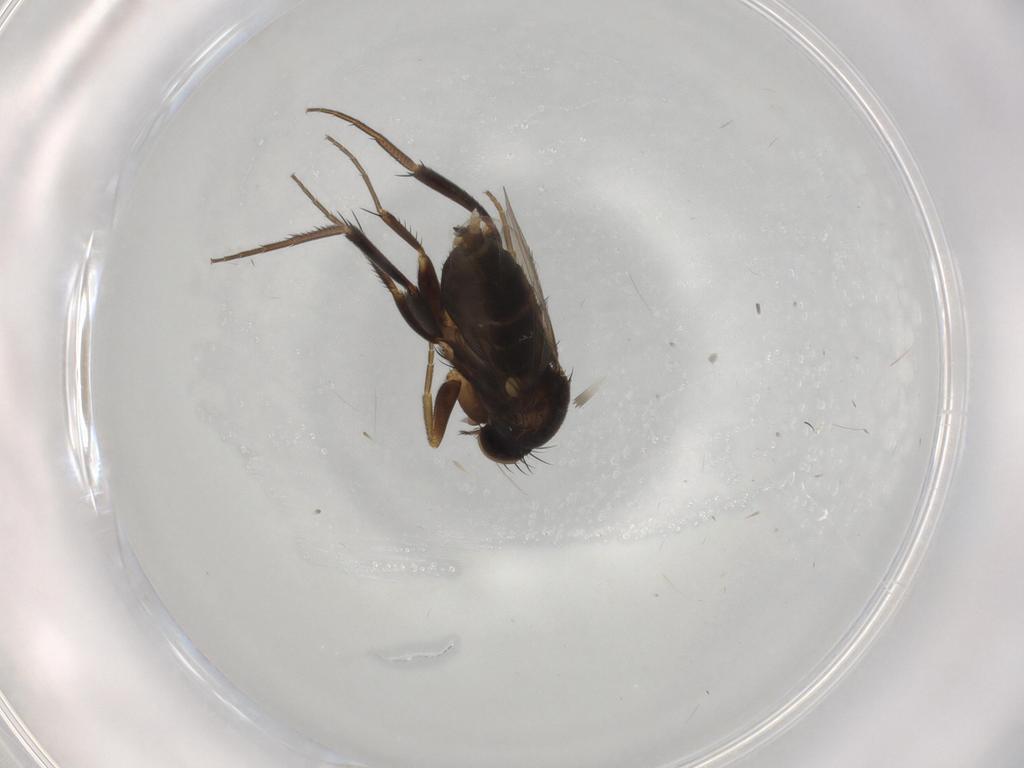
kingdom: Animalia
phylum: Arthropoda
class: Insecta
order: Diptera
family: Phoridae
